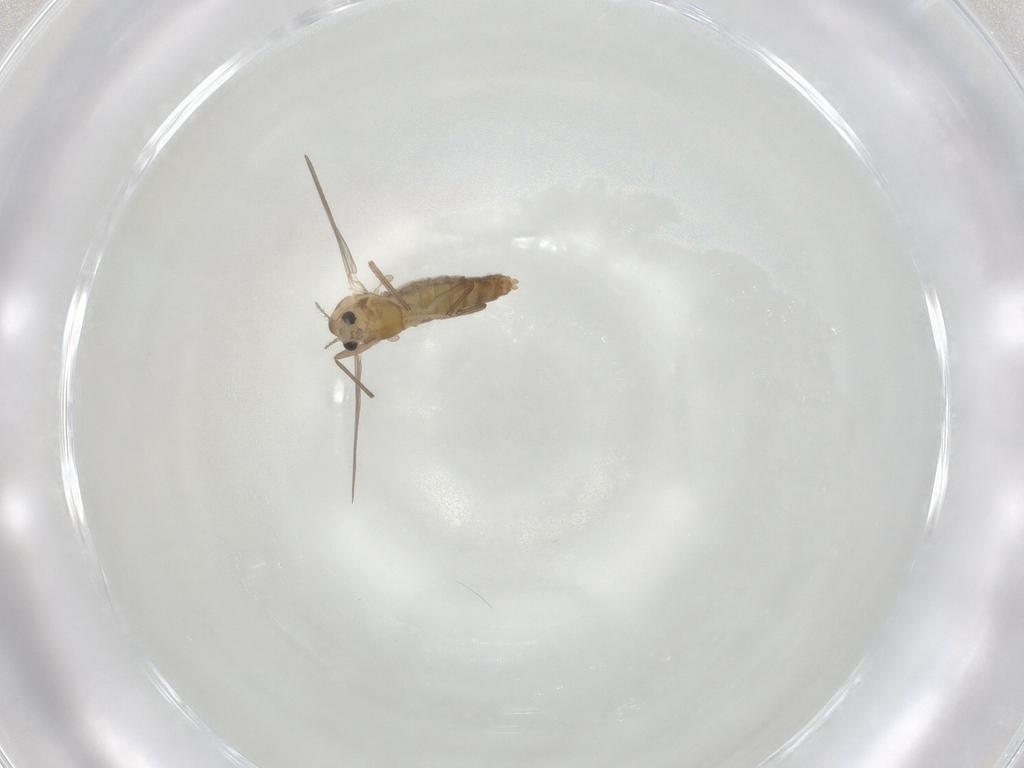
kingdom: Animalia
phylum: Arthropoda
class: Insecta
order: Diptera
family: Chironomidae
